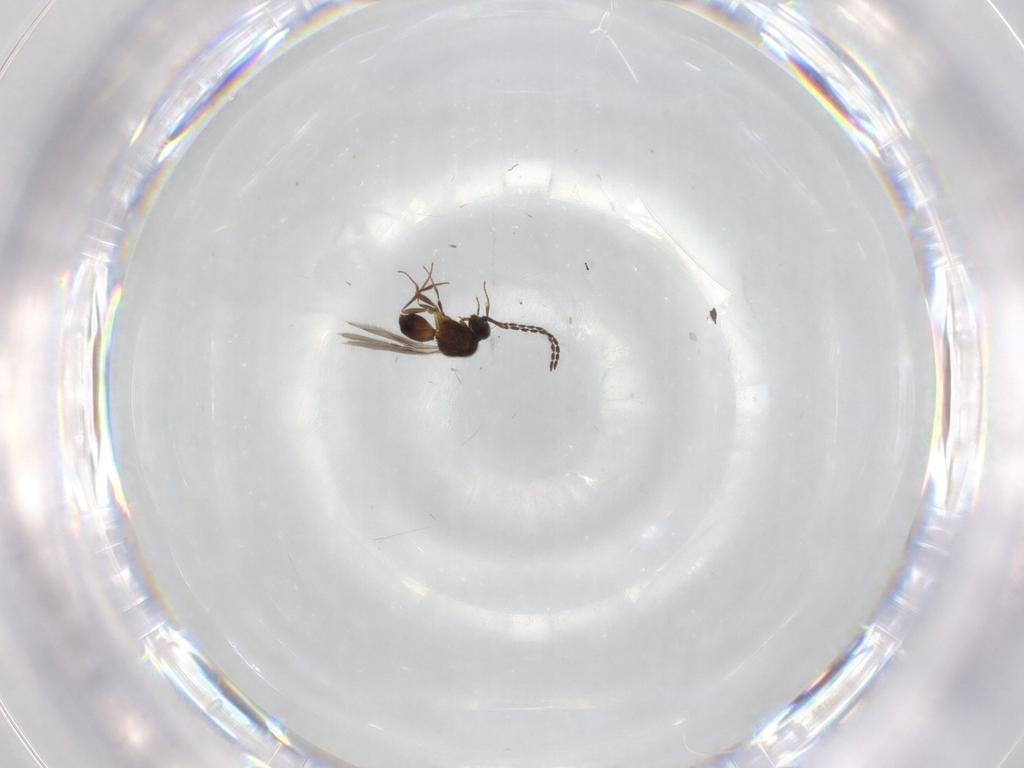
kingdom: Animalia
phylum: Arthropoda
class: Insecta
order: Hymenoptera
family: Ceraphronidae
